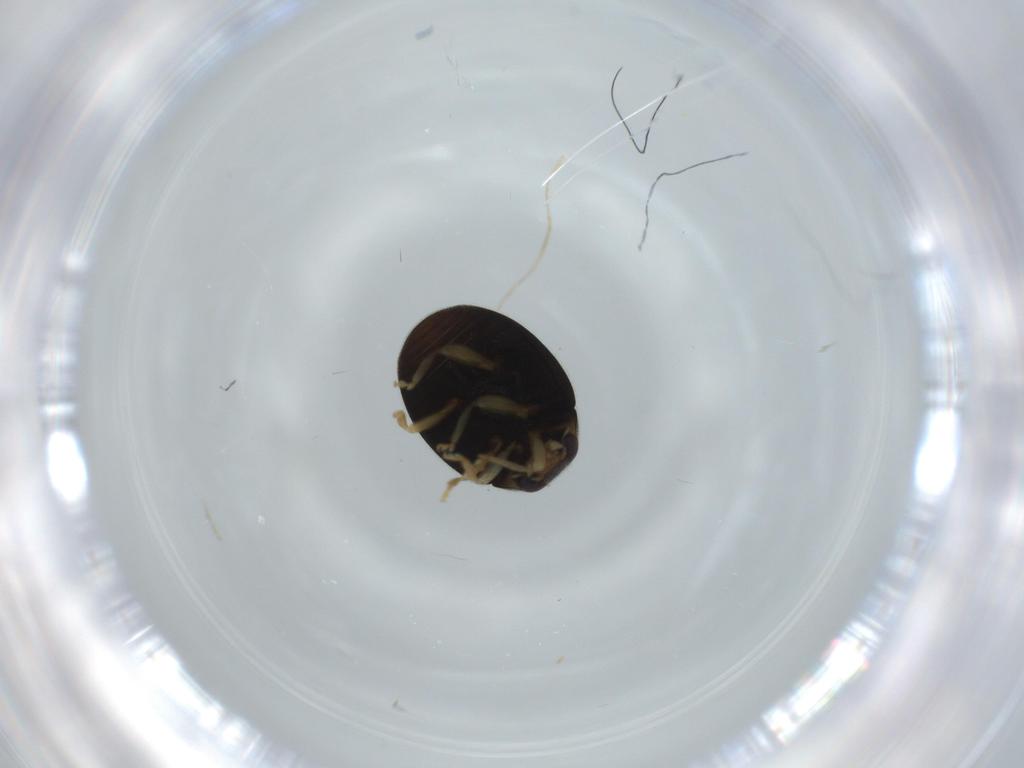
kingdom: Animalia
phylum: Arthropoda
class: Insecta
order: Coleoptera
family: Coccinellidae
